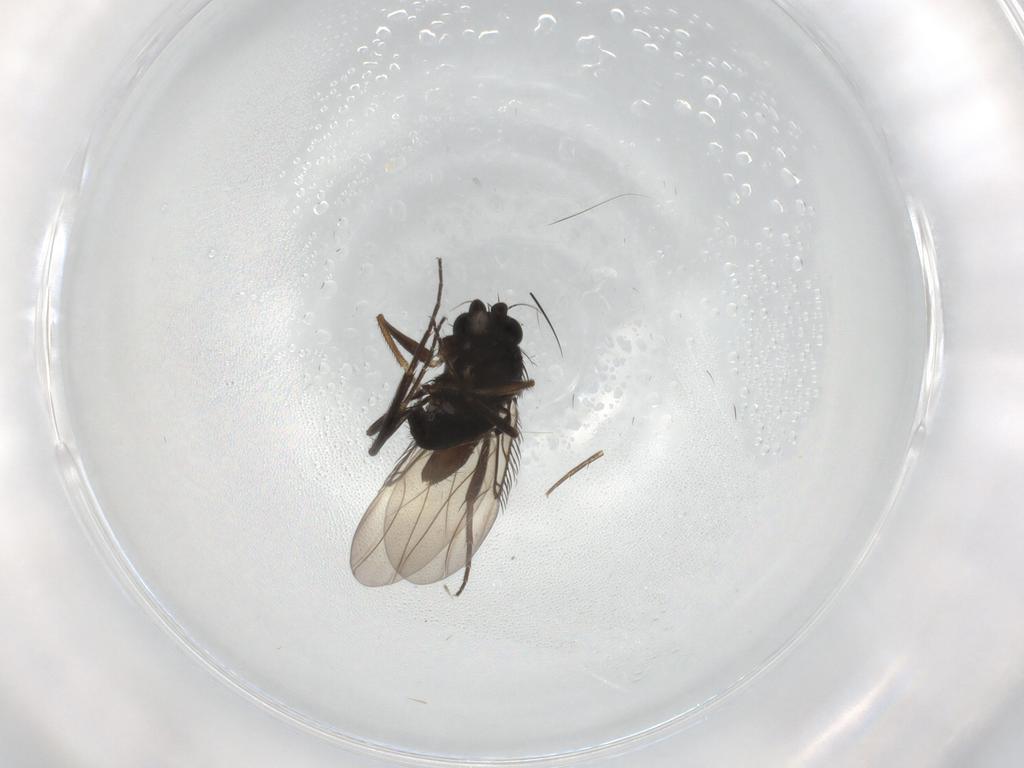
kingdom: Animalia
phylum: Arthropoda
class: Insecta
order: Diptera
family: Phoridae
